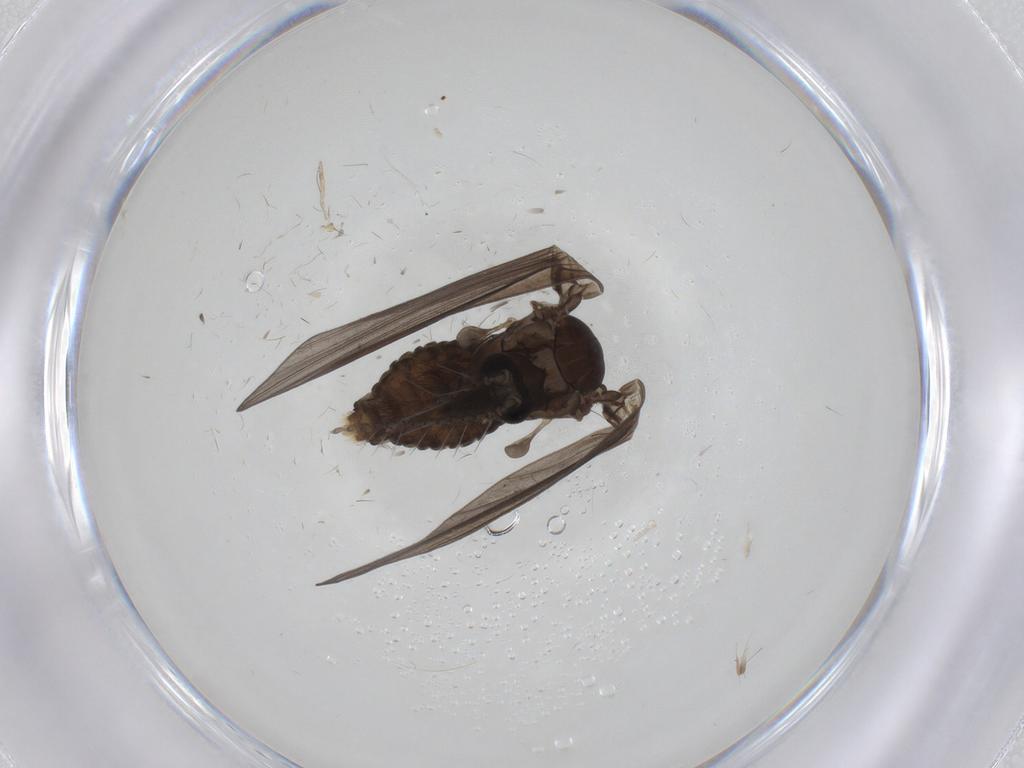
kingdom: Animalia
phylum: Arthropoda
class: Insecta
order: Diptera
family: Psychodidae
